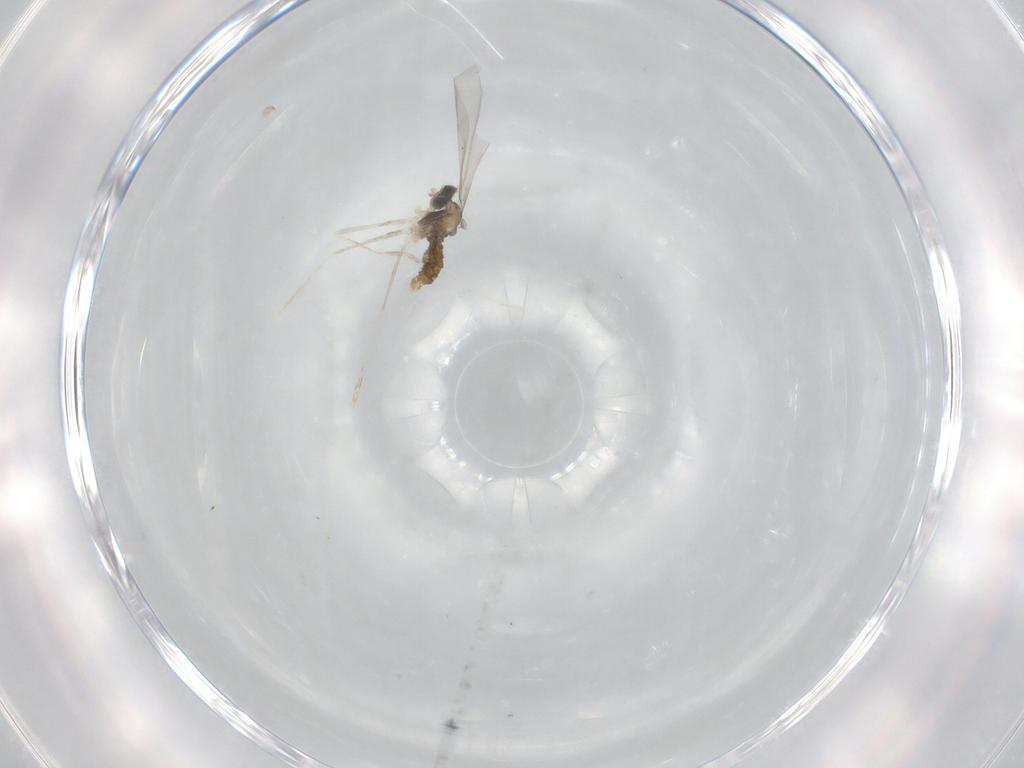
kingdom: Animalia
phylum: Arthropoda
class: Insecta
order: Diptera
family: Cecidomyiidae
